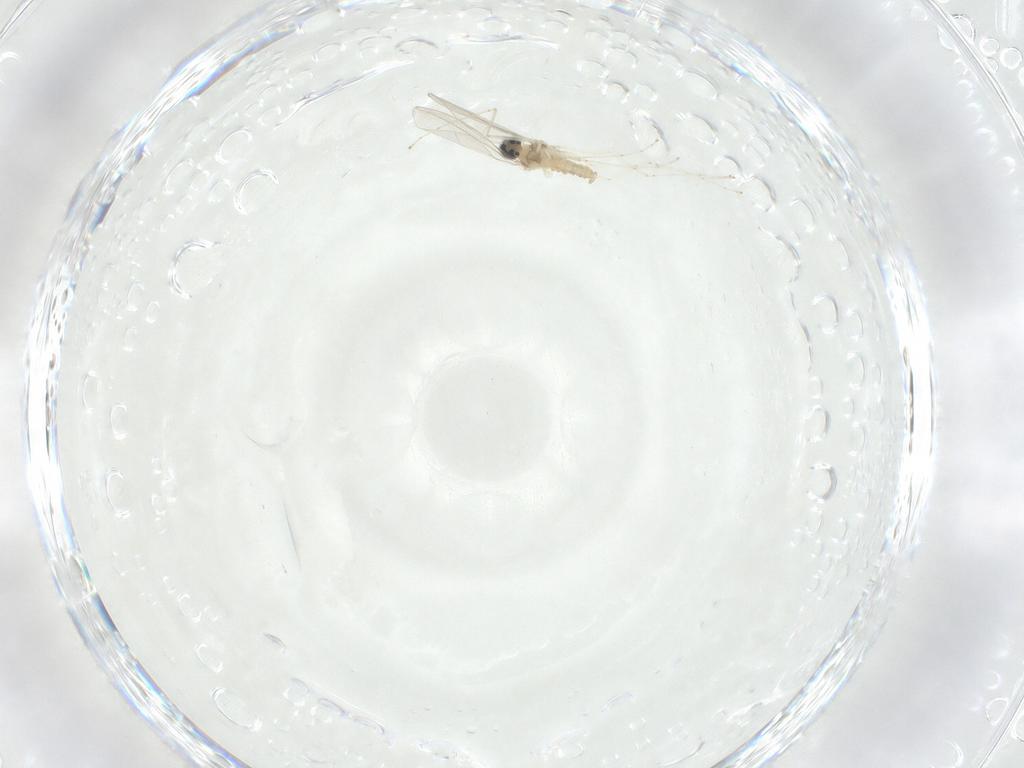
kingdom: Animalia
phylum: Arthropoda
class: Insecta
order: Diptera
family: Cecidomyiidae
